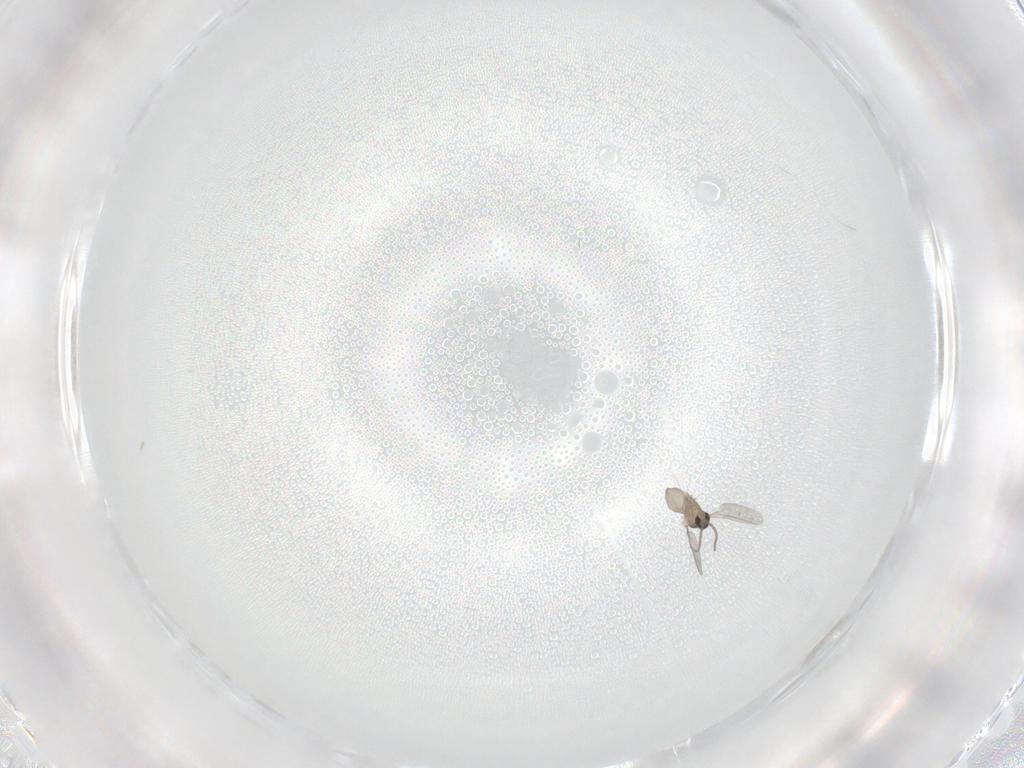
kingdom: Animalia
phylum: Arthropoda
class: Insecta
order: Diptera
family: Cecidomyiidae
